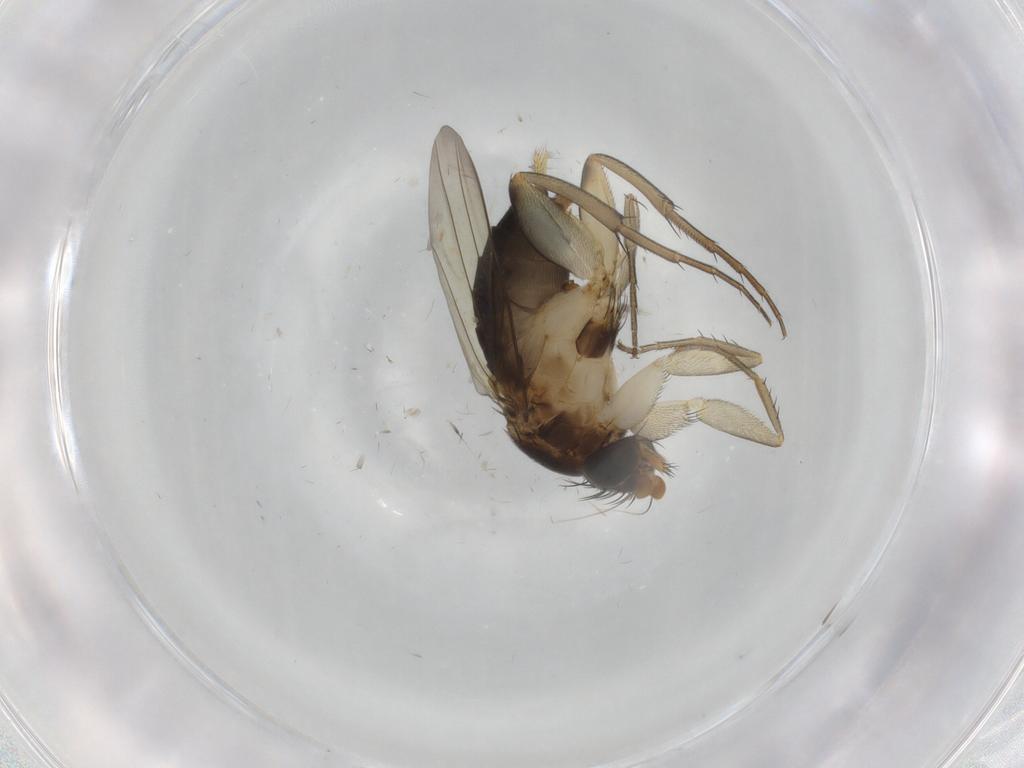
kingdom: Animalia
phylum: Arthropoda
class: Insecta
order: Diptera
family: Phoridae
